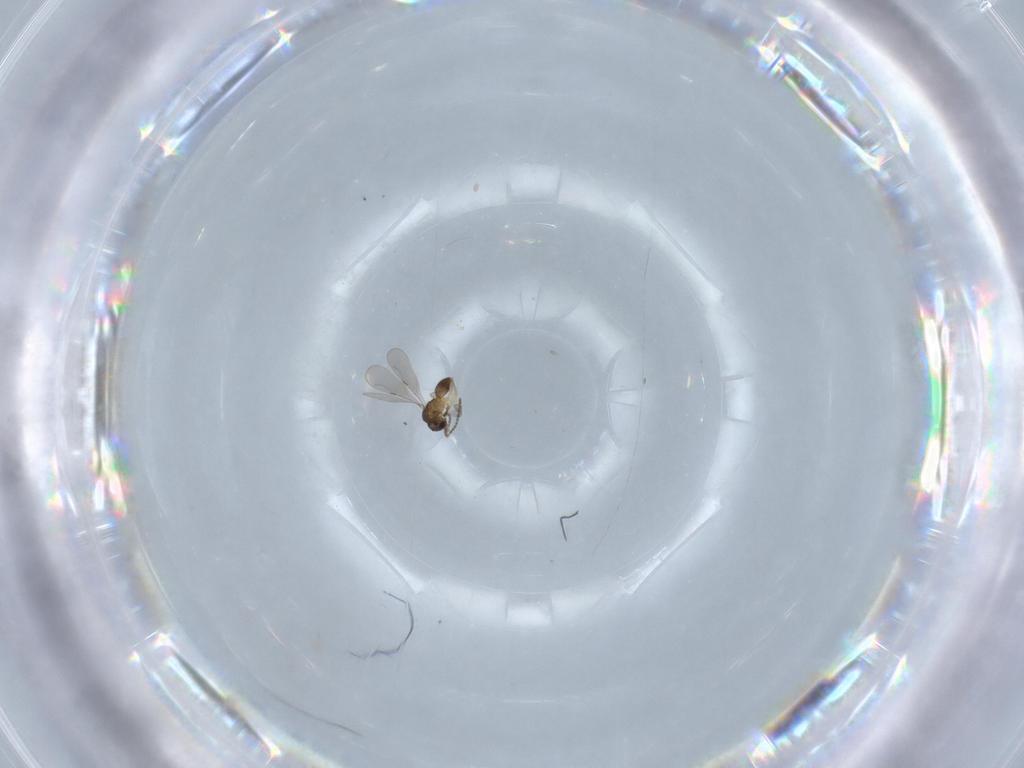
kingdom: Animalia
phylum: Arthropoda
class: Insecta
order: Hymenoptera
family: Ceraphronidae
